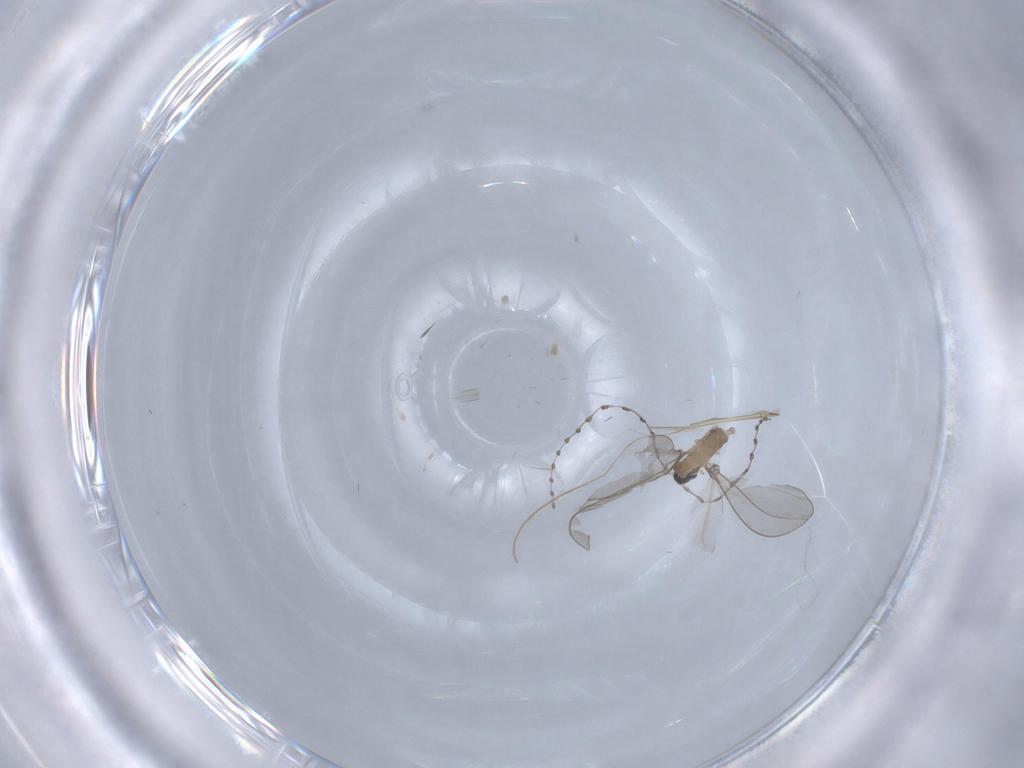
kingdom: Animalia
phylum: Arthropoda
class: Insecta
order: Diptera
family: Cecidomyiidae
